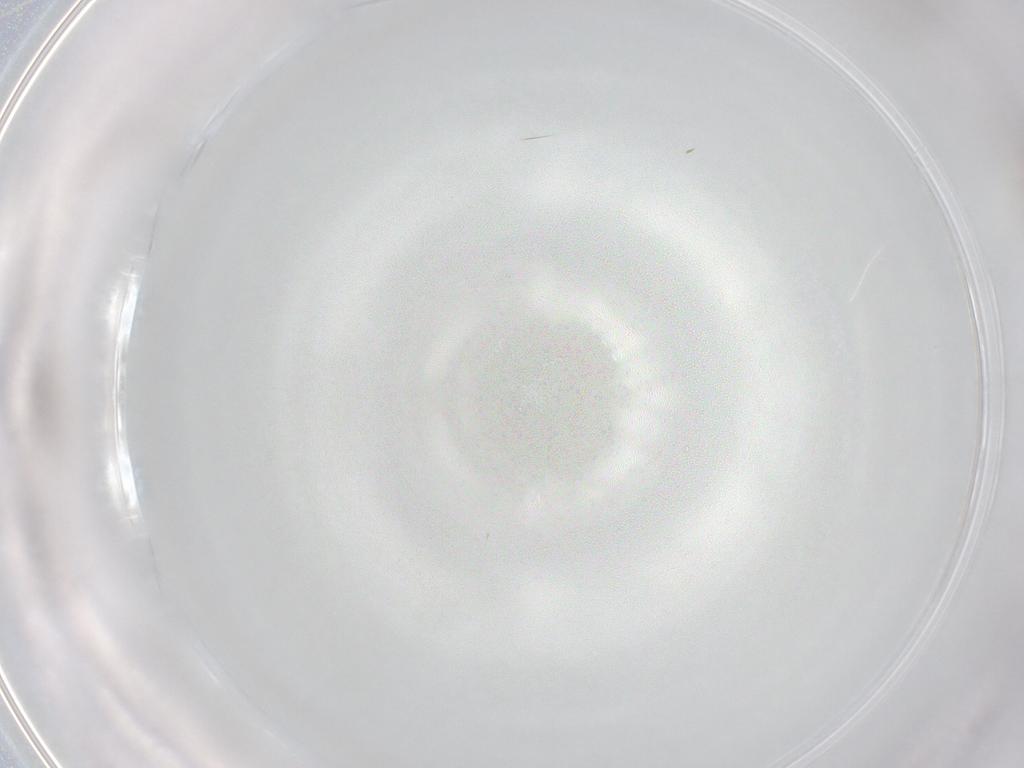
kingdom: Animalia
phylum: Arthropoda
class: Insecta
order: Hymenoptera
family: Aphelinidae
